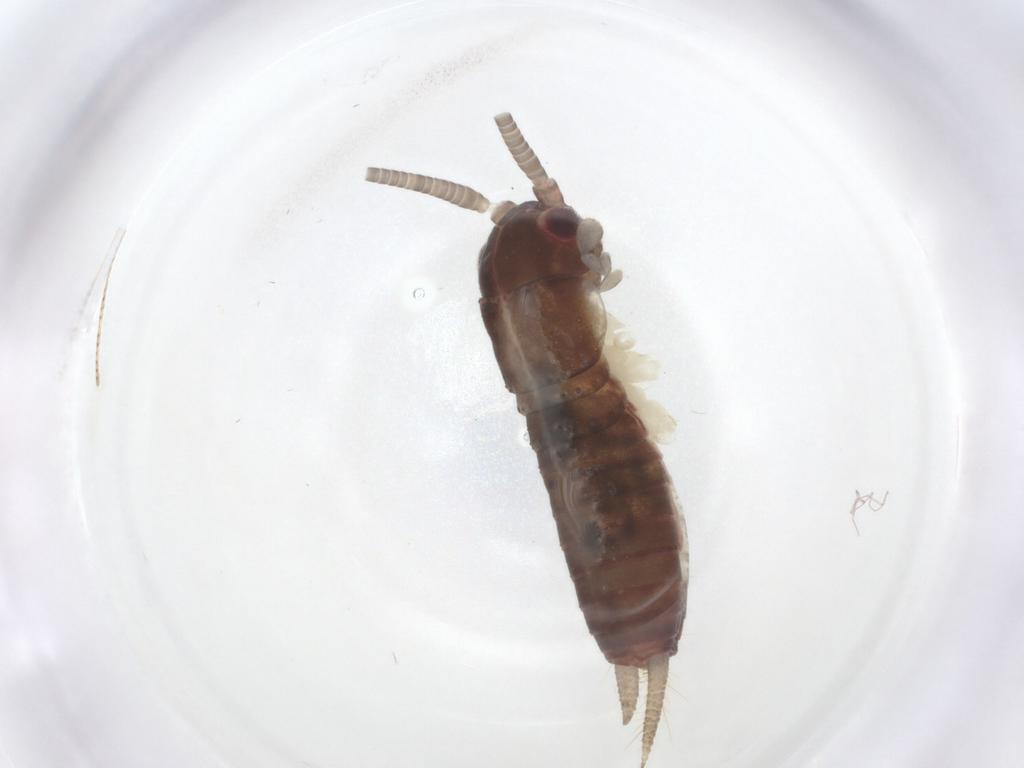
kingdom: Animalia
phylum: Arthropoda
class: Insecta
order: Orthoptera
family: Gryllidae
